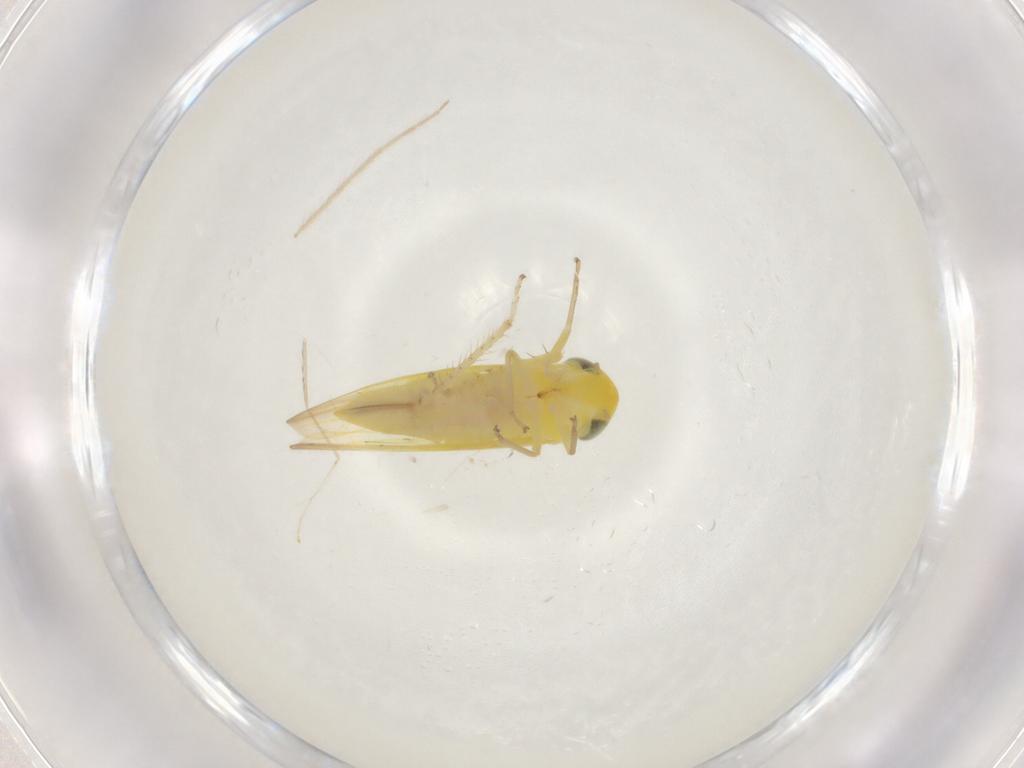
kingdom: Animalia
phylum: Arthropoda
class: Insecta
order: Hemiptera
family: Cicadellidae
